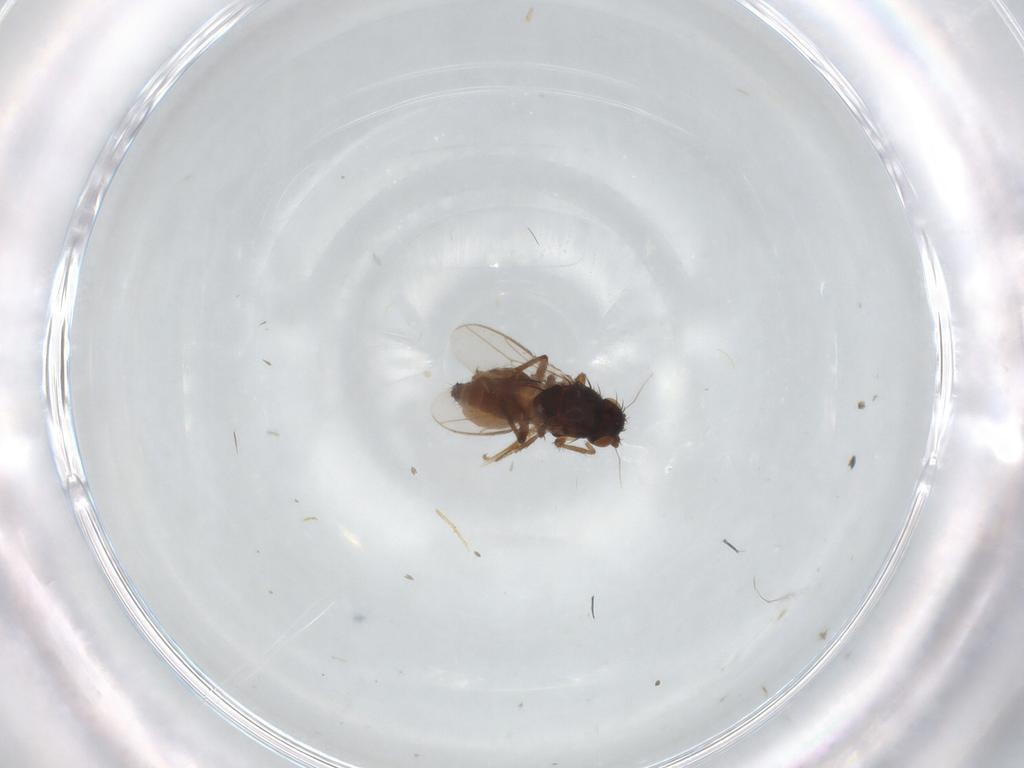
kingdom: Animalia
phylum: Arthropoda
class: Insecta
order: Diptera
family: Sphaeroceridae
